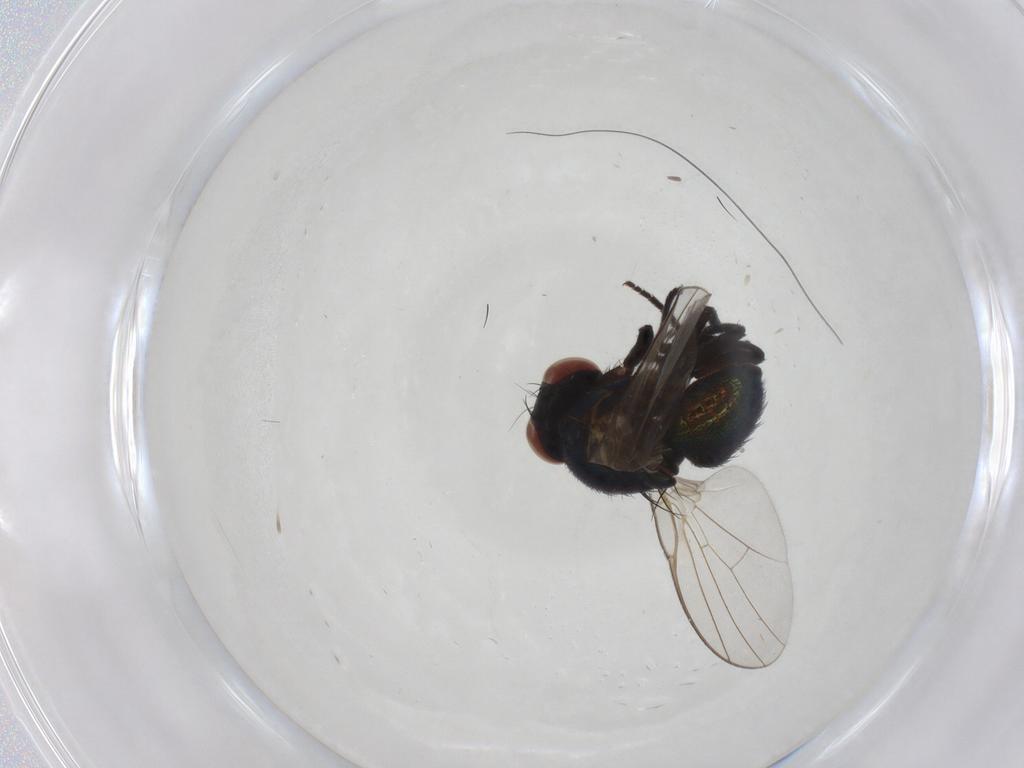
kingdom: Animalia
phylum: Arthropoda
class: Insecta
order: Diptera
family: Agromyzidae
